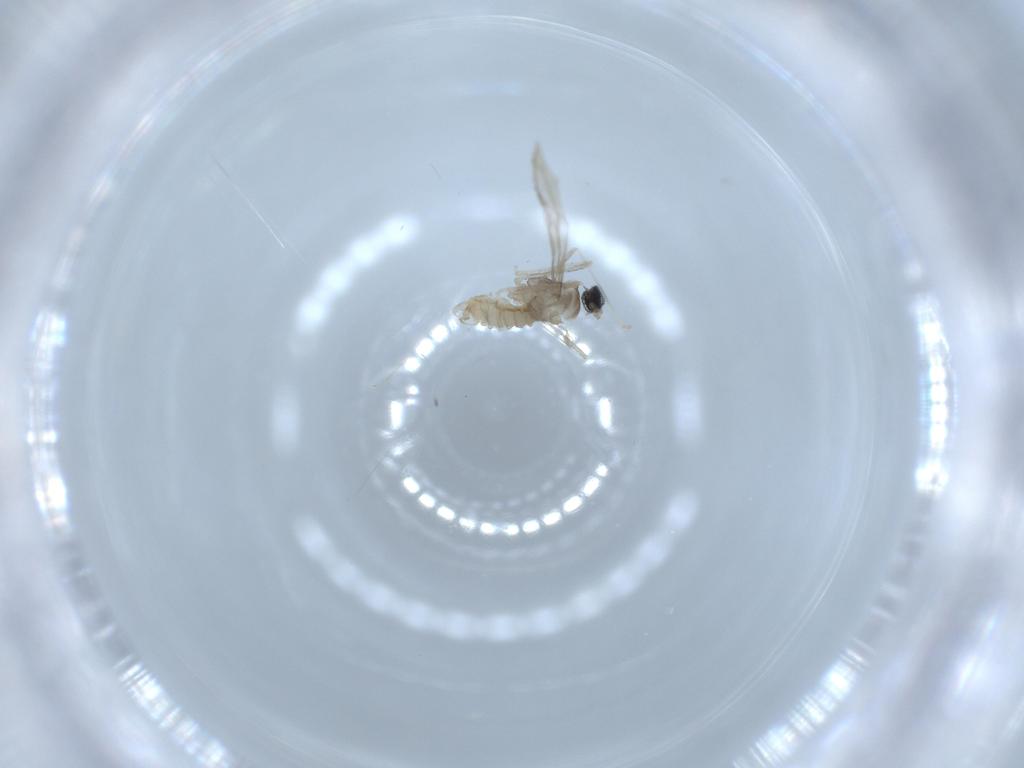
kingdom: Animalia
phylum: Arthropoda
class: Insecta
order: Diptera
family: Cecidomyiidae
